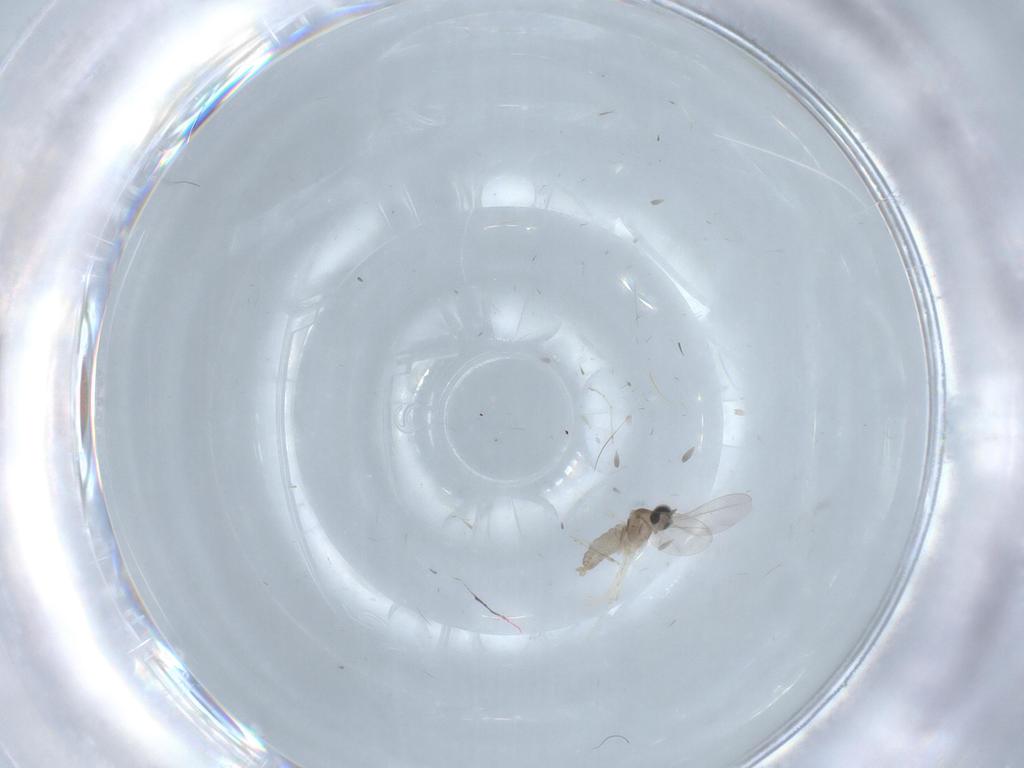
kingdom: Animalia
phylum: Arthropoda
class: Insecta
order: Diptera
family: Cecidomyiidae
